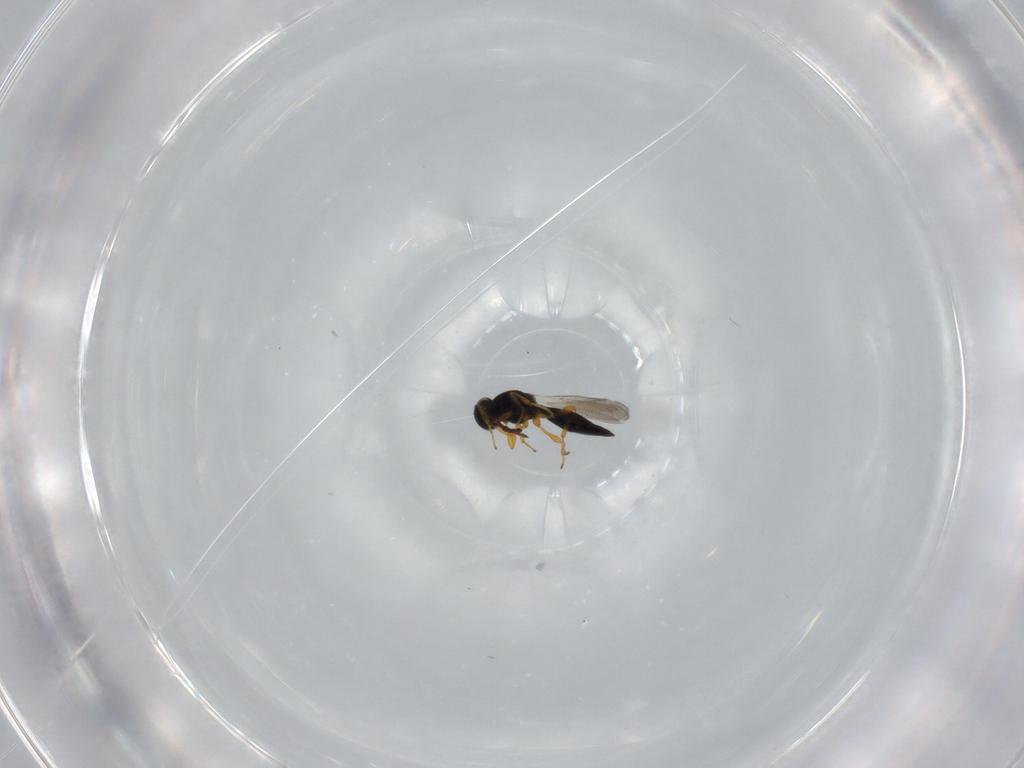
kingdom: Animalia
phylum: Arthropoda
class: Insecta
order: Hymenoptera
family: Platygastridae
